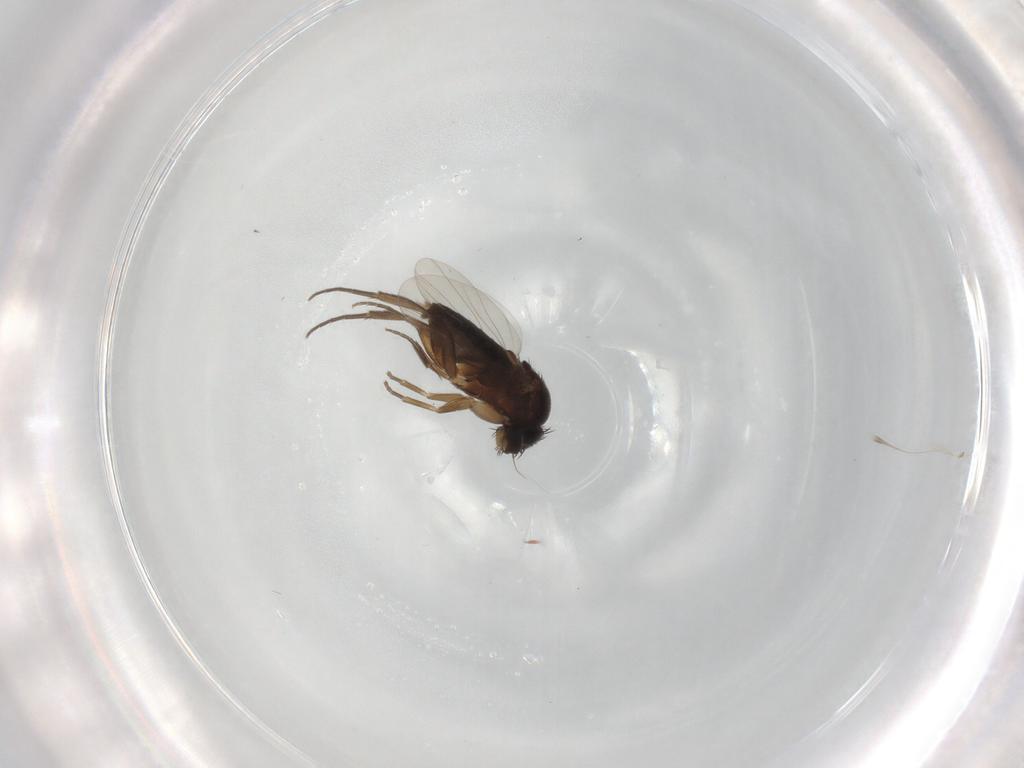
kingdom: Animalia
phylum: Arthropoda
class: Insecta
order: Diptera
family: Phoridae
